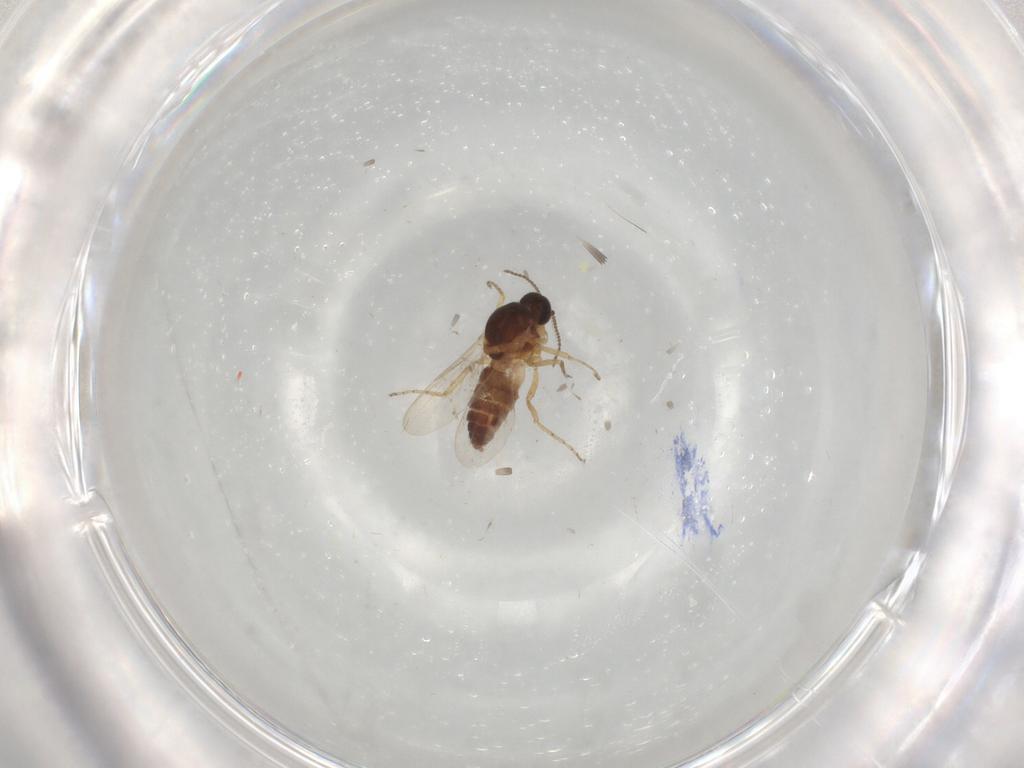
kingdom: Animalia
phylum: Arthropoda
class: Insecta
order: Diptera
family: Ceratopogonidae
